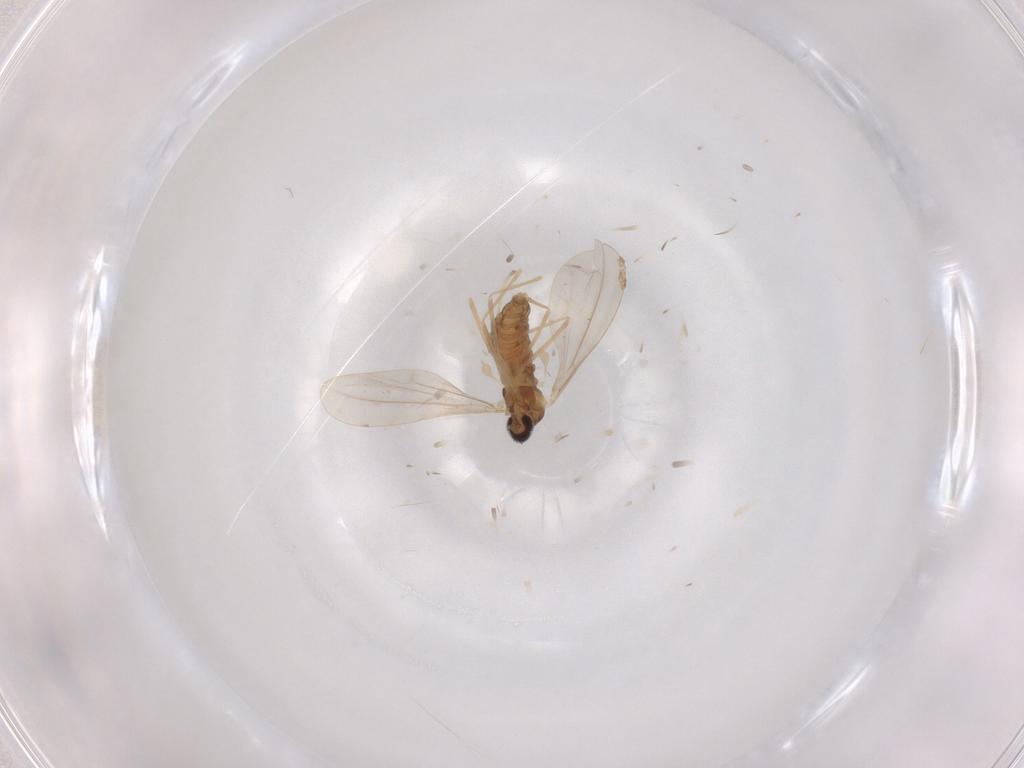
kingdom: Animalia
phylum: Arthropoda
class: Insecta
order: Diptera
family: Cecidomyiidae
